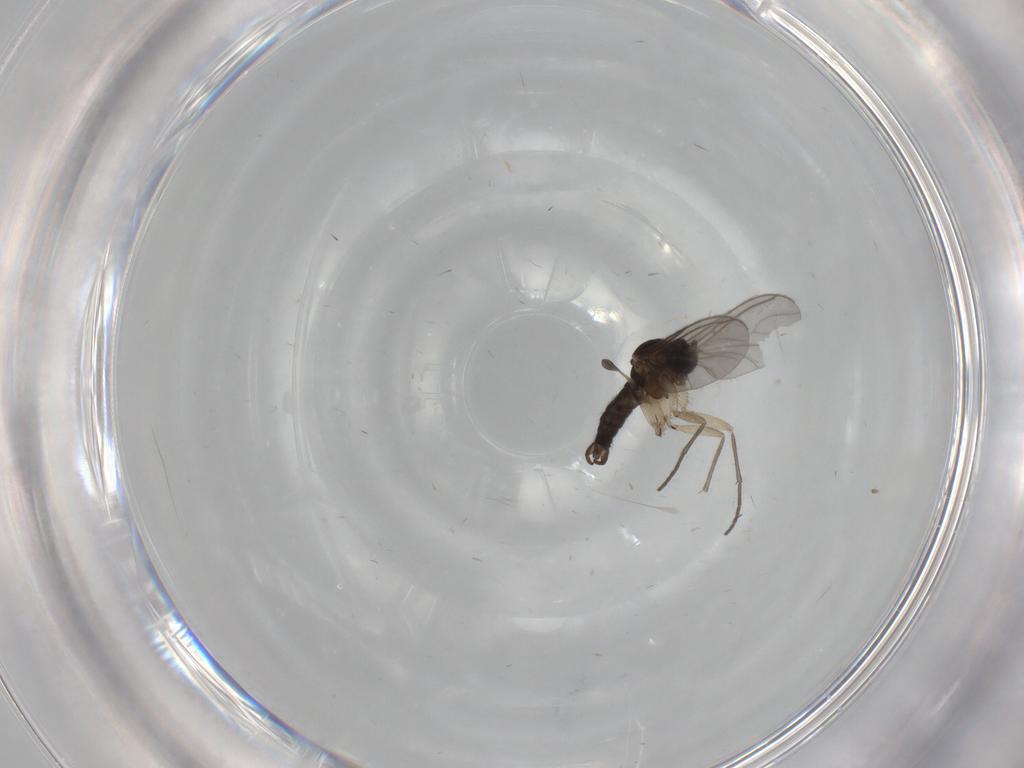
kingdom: Animalia
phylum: Arthropoda
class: Insecta
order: Diptera
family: Sciaridae
